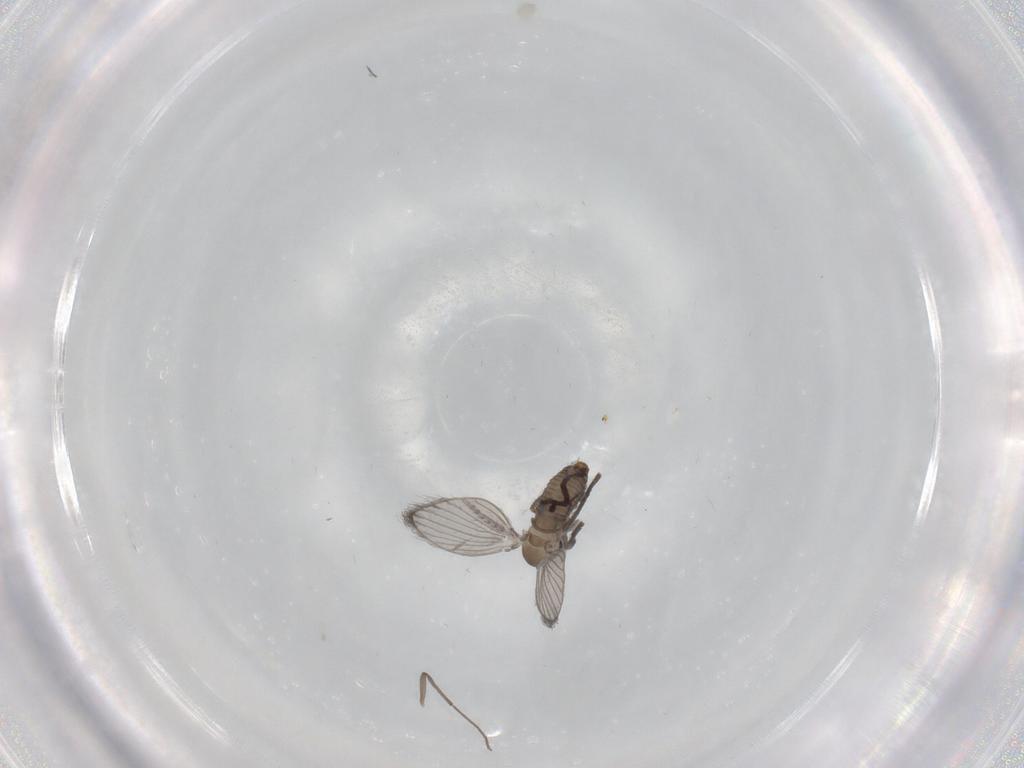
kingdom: Animalia
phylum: Arthropoda
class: Insecta
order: Diptera
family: Psychodidae
